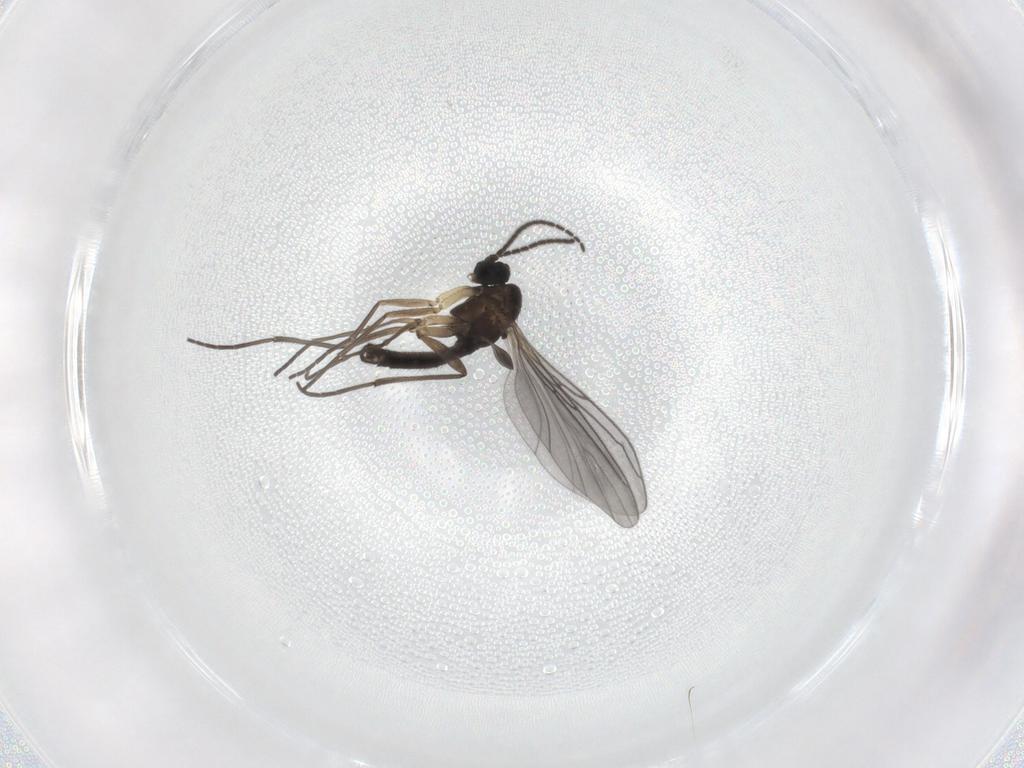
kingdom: Animalia
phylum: Arthropoda
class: Insecta
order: Diptera
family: Sciaridae
